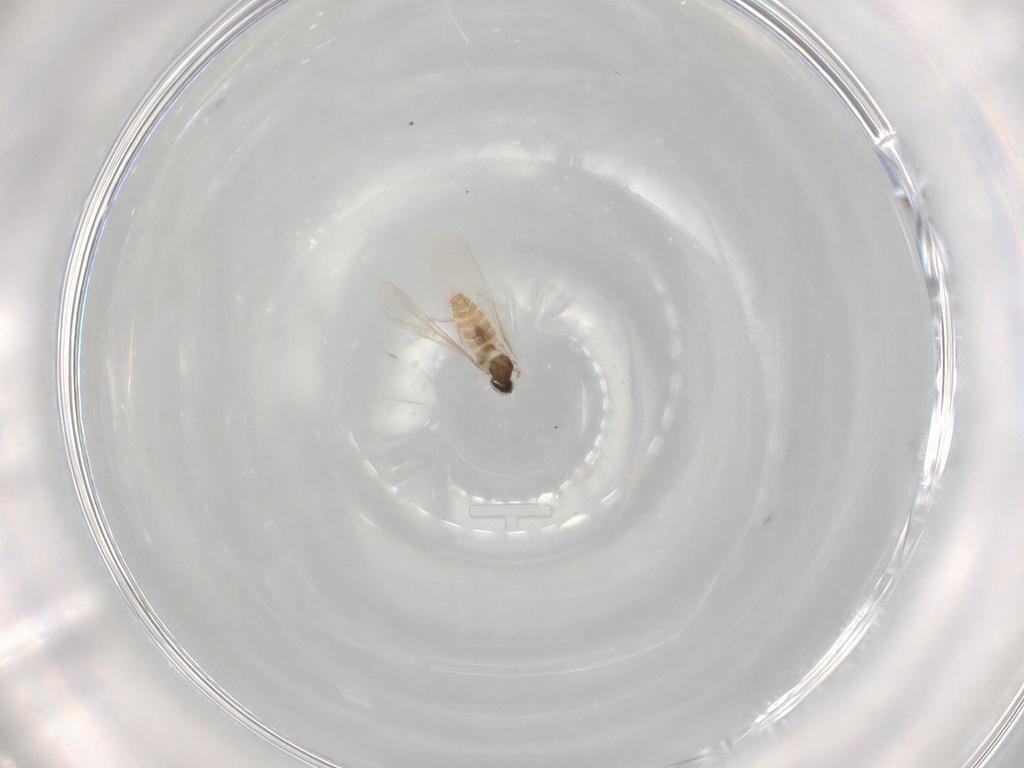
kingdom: Animalia
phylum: Arthropoda
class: Insecta
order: Diptera
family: Cecidomyiidae
